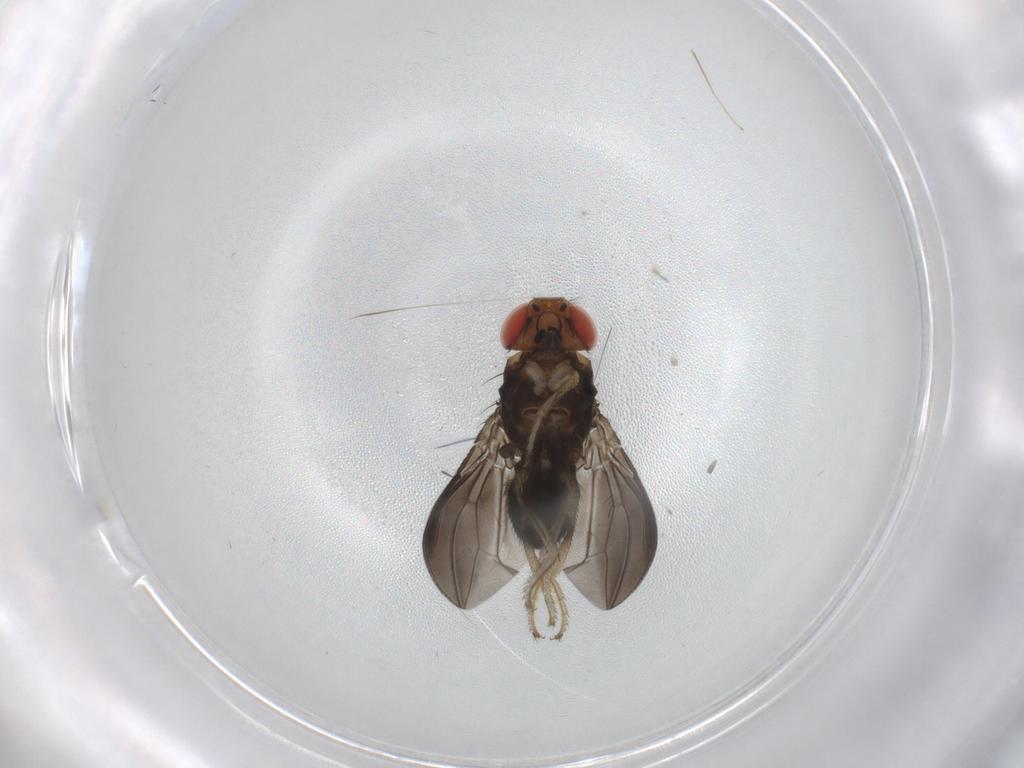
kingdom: Animalia
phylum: Arthropoda
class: Insecta
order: Diptera
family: Drosophilidae
